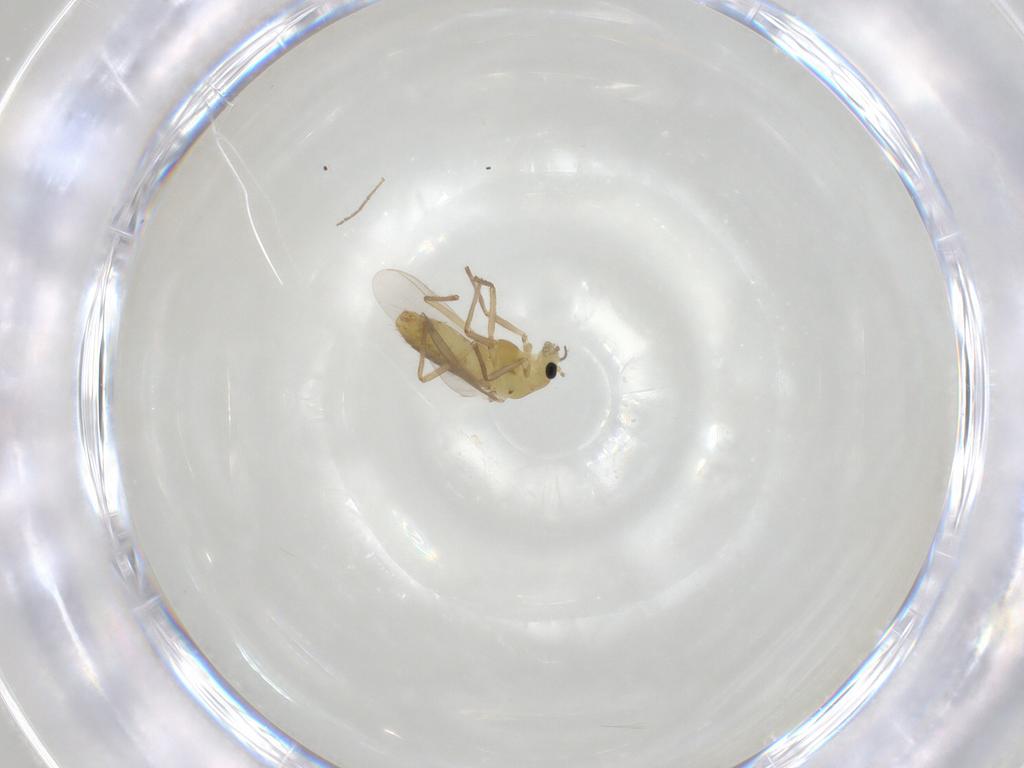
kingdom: Animalia
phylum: Arthropoda
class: Insecta
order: Diptera
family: Chironomidae
